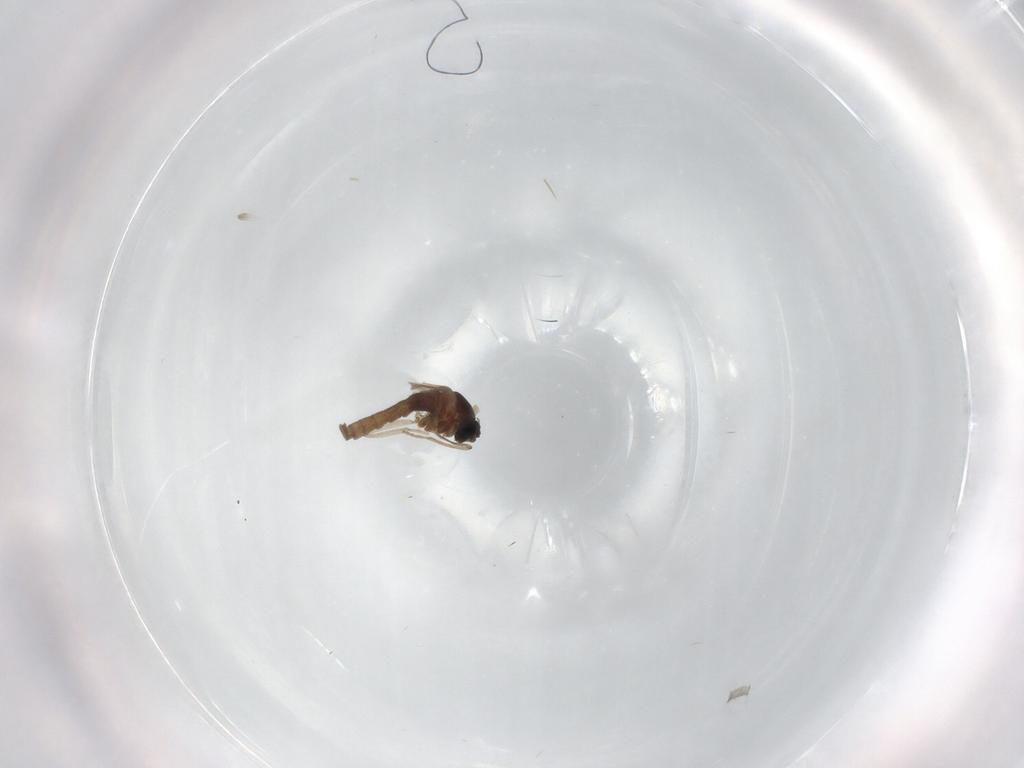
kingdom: Animalia
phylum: Arthropoda
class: Insecta
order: Diptera
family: Cecidomyiidae
